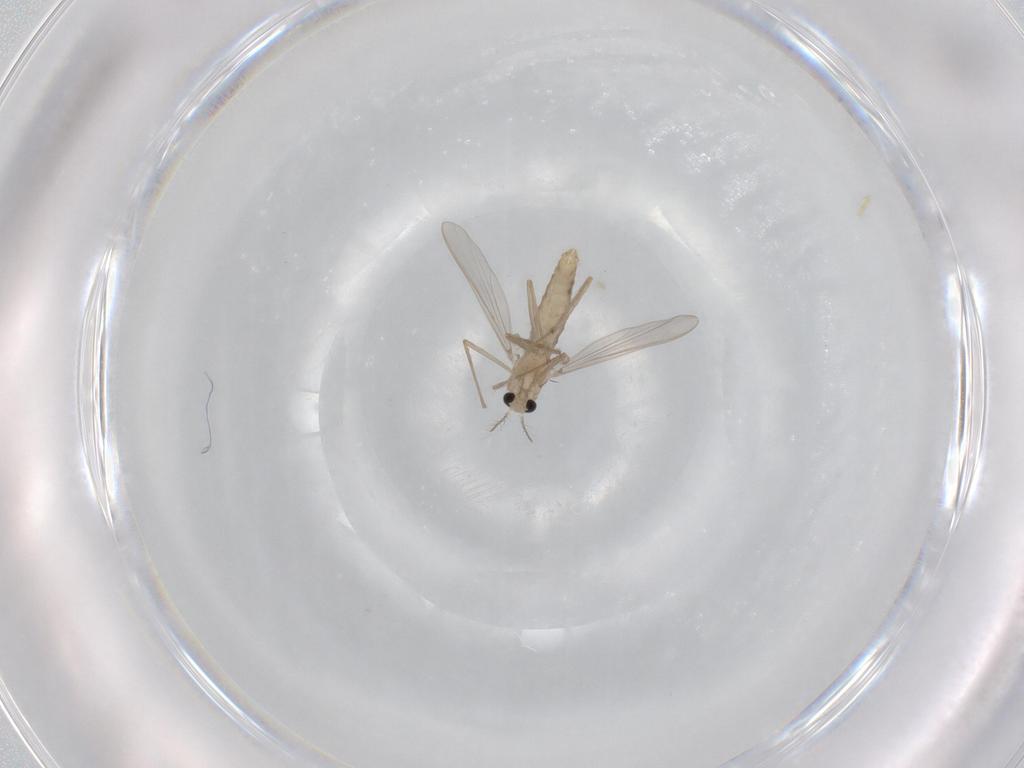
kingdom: Animalia
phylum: Arthropoda
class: Insecta
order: Diptera
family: Chironomidae
